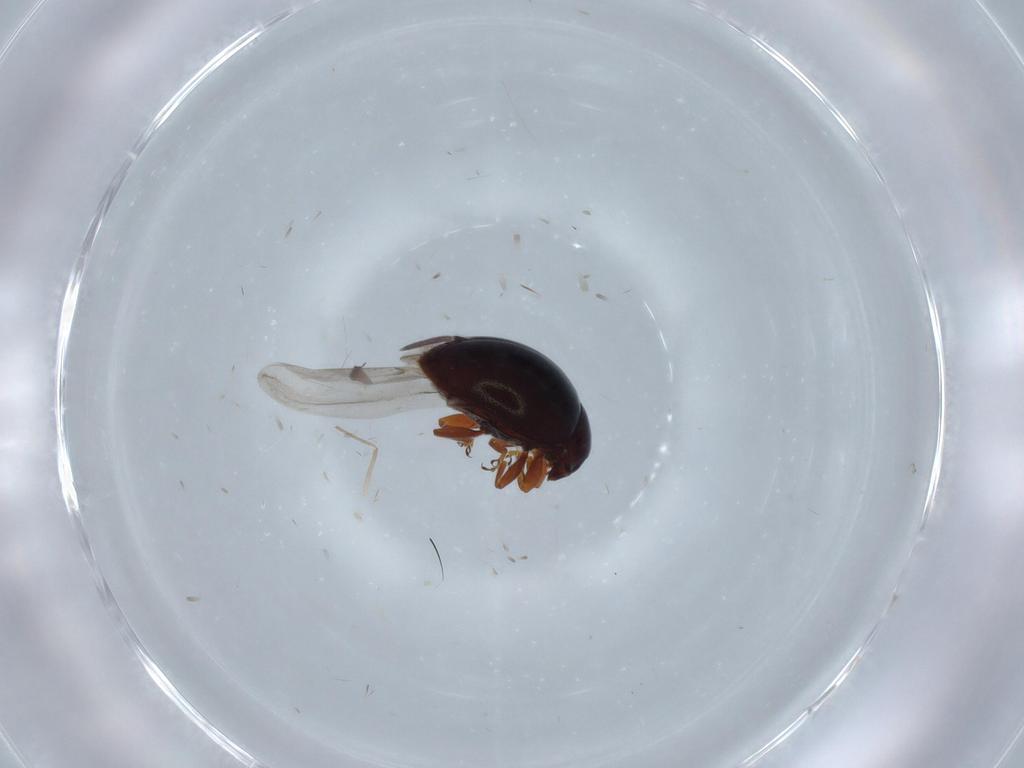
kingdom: Animalia
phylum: Arthropoda
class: Insecta
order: Coleoptera
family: Coccinellidae
